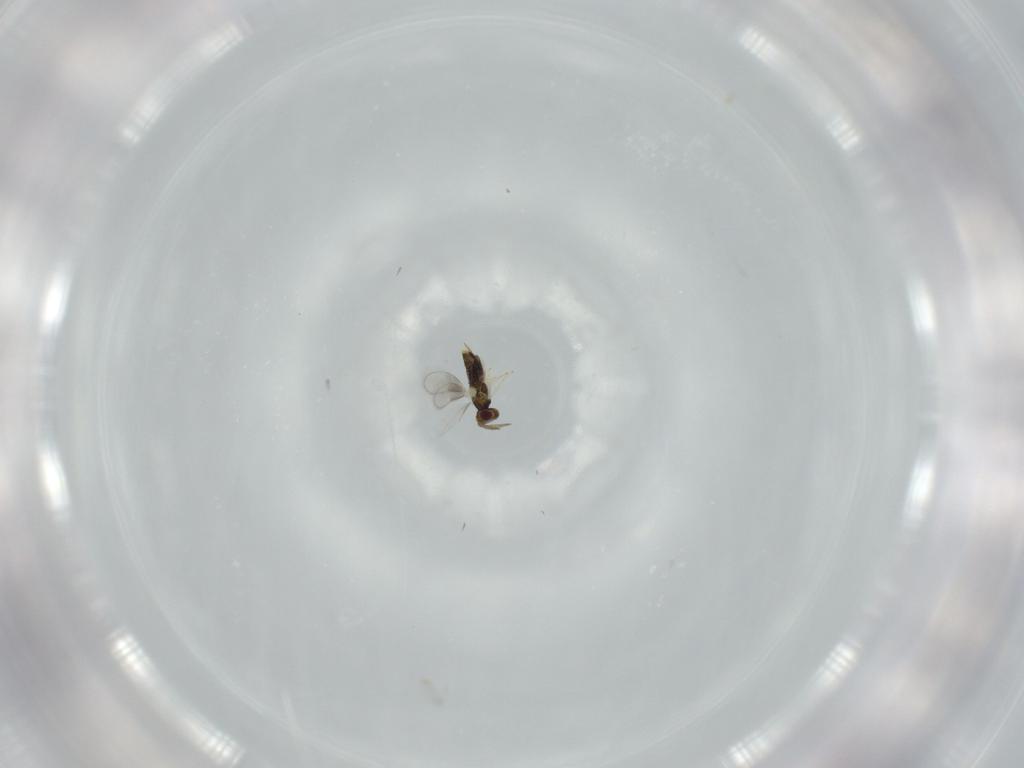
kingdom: Animalia
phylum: Arthropoda
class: Insecta
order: Hymenoptera
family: Aphelinidae
